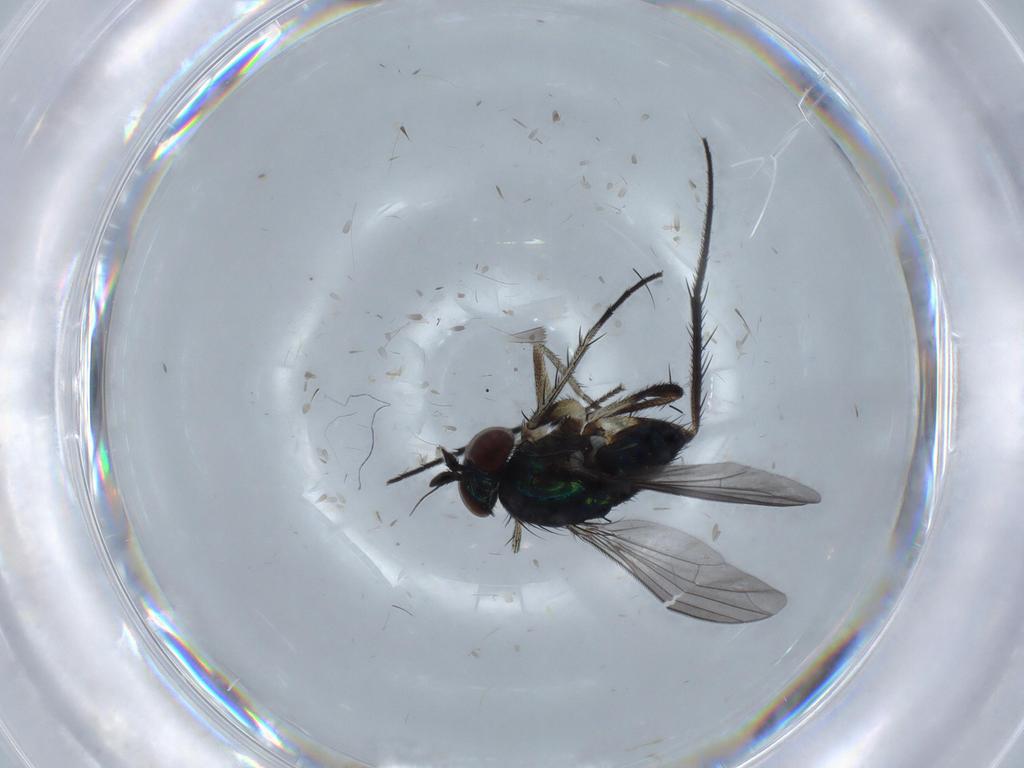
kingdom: Animalia
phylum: Arthropoda
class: Insecta
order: Diptera
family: Dolichopodidae
